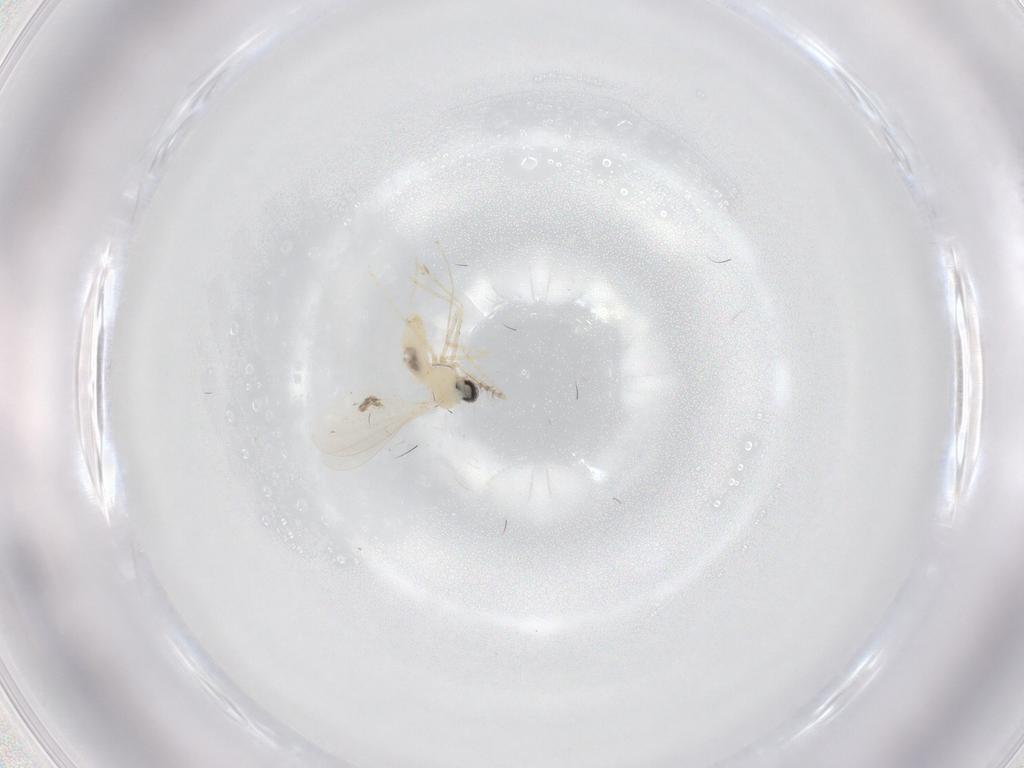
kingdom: Animalia
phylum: Arthropoda
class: Insecta
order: Diptera
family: Cecidomyiidae
